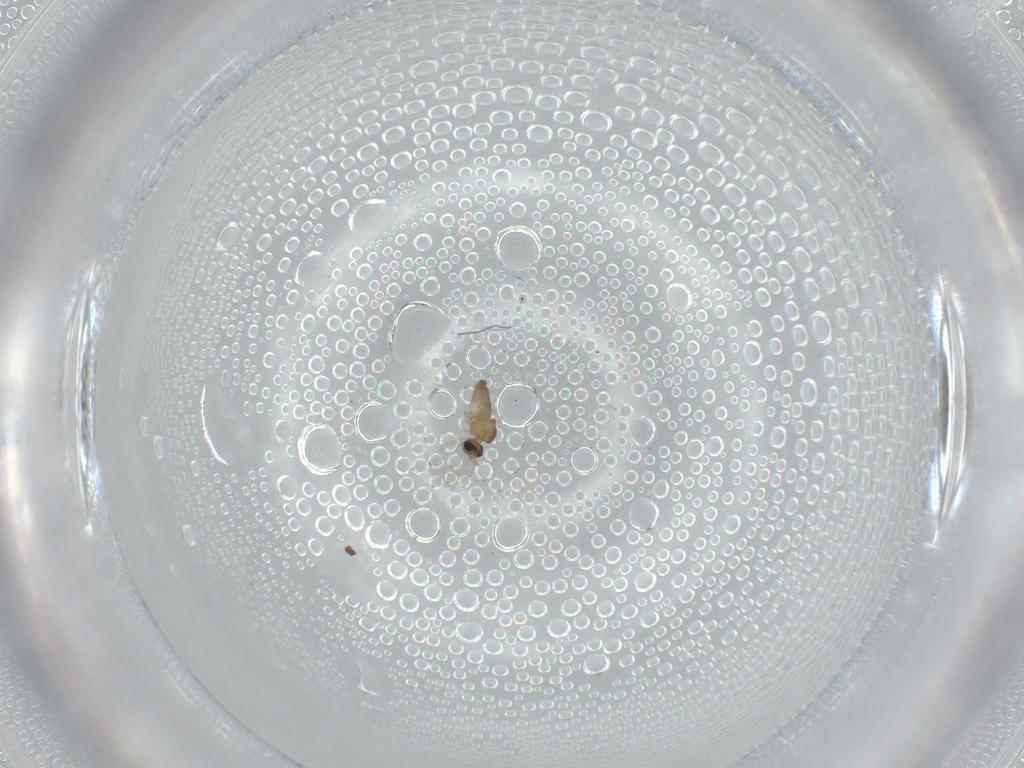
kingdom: Animalia
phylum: Arthropoda
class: Insecta
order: Diptera
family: Cecidomyiidae
